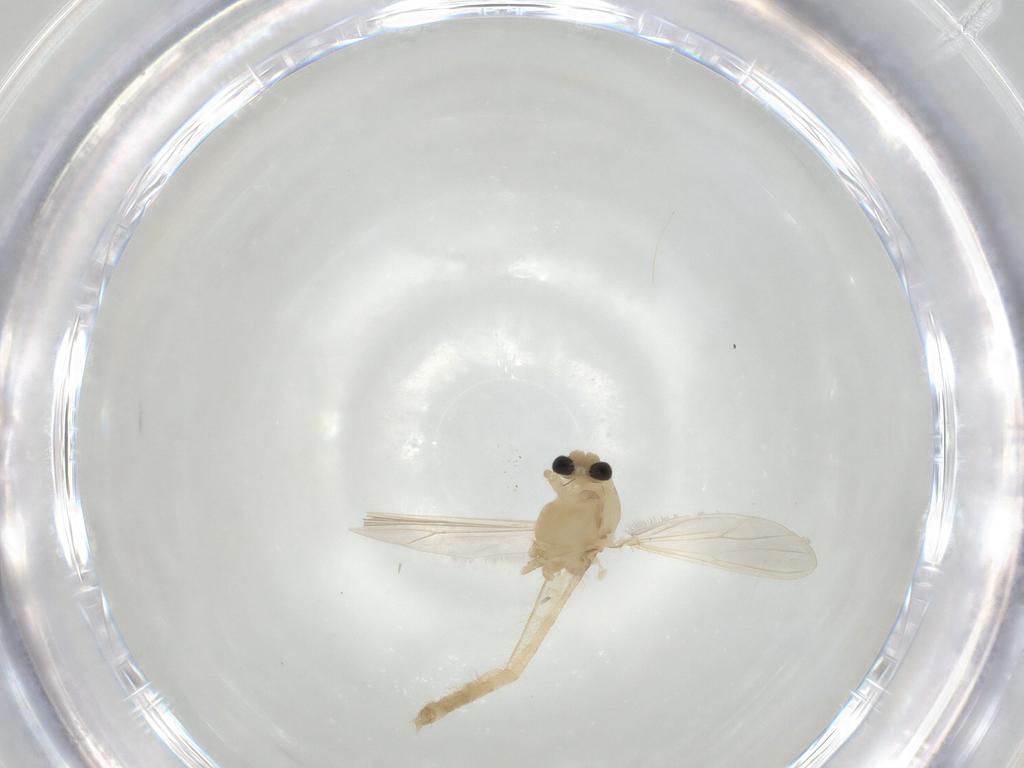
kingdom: Animalia
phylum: Arthropoda
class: Insecta
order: Diptera
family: Chironomidae
